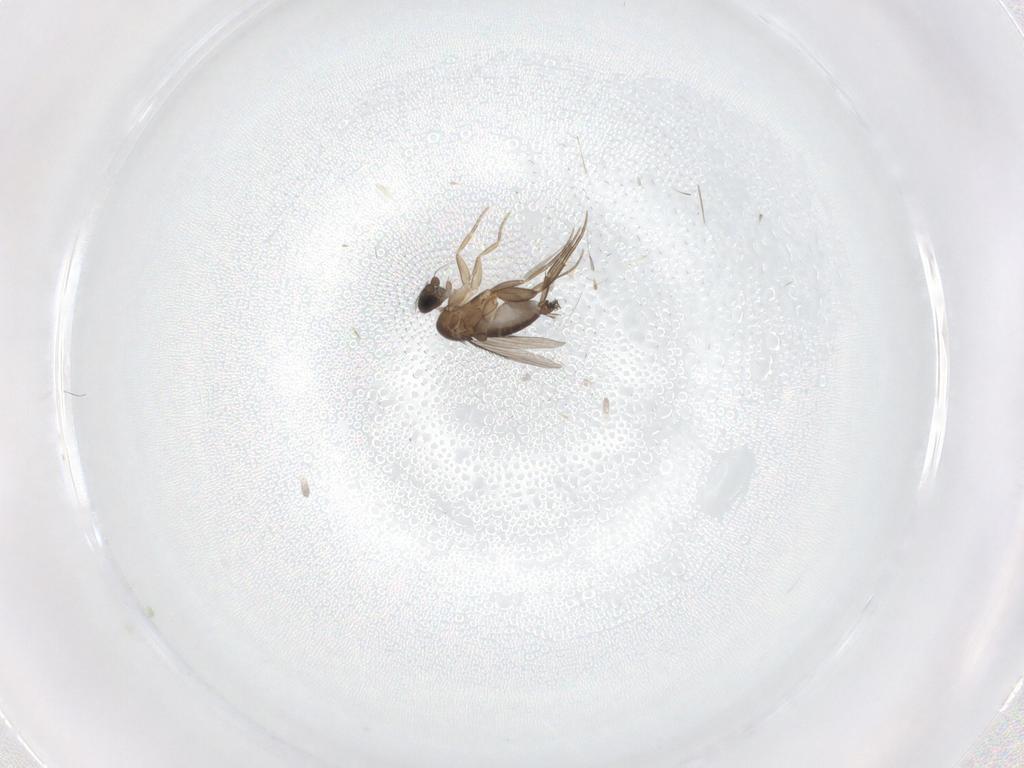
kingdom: Animalia
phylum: Arthropoda
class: Insecta
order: Diptera
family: Phoridae
